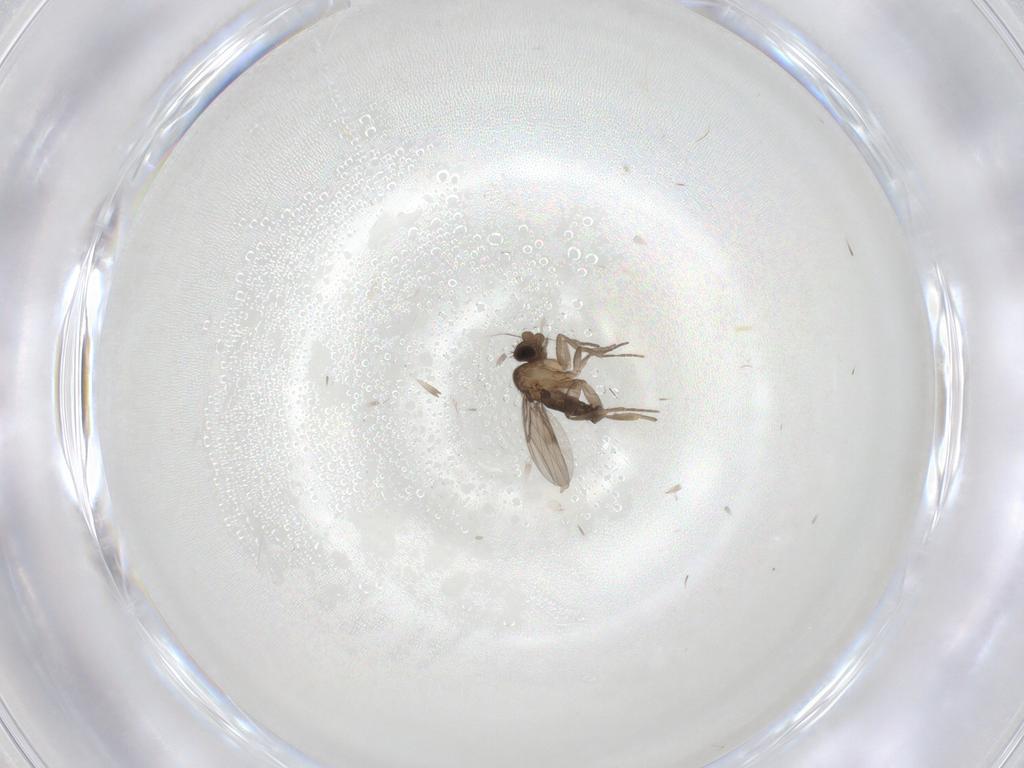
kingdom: Animalia
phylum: Arthropoda
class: Insecta
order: Diptera
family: Phoridae
